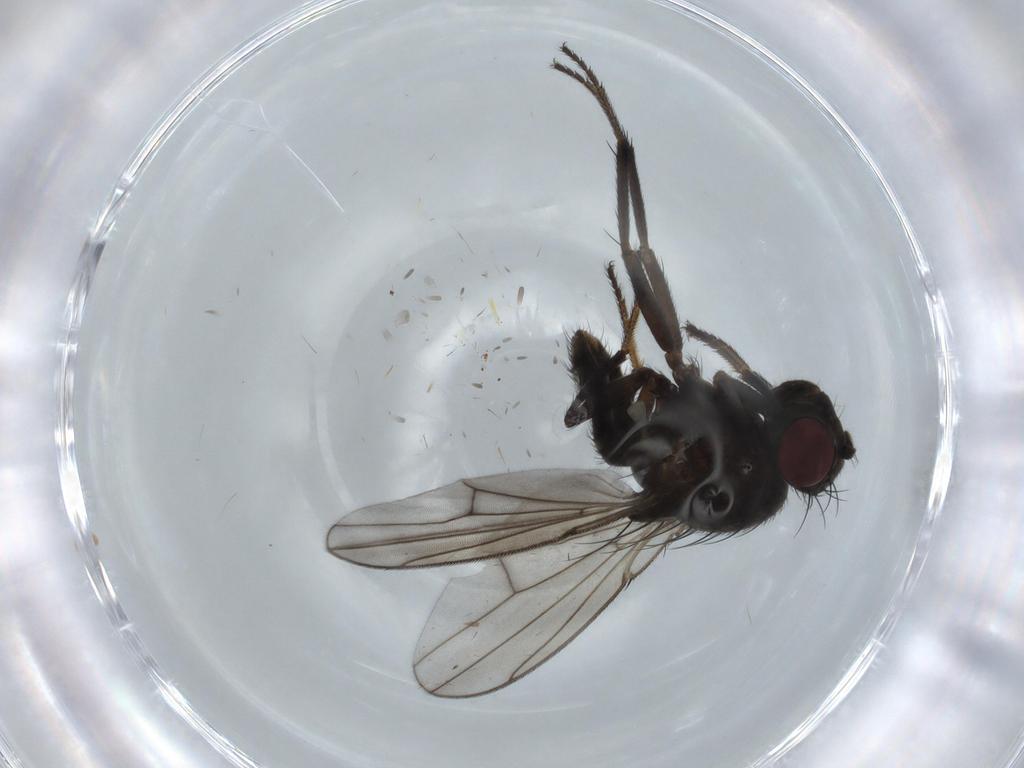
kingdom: Animalia
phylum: Arthropoda
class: Insecta
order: Diptera
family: Ephydridae
